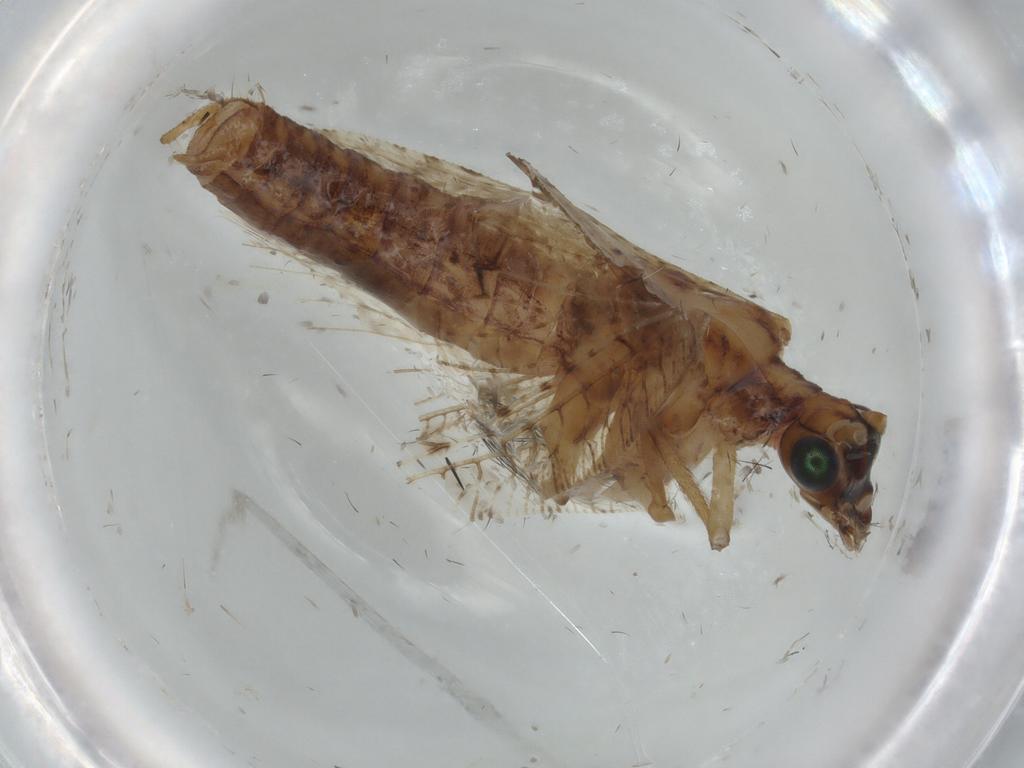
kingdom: Animalia
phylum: Arthropoda
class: Insecta
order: Neuroptera
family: Hemerobiidae
